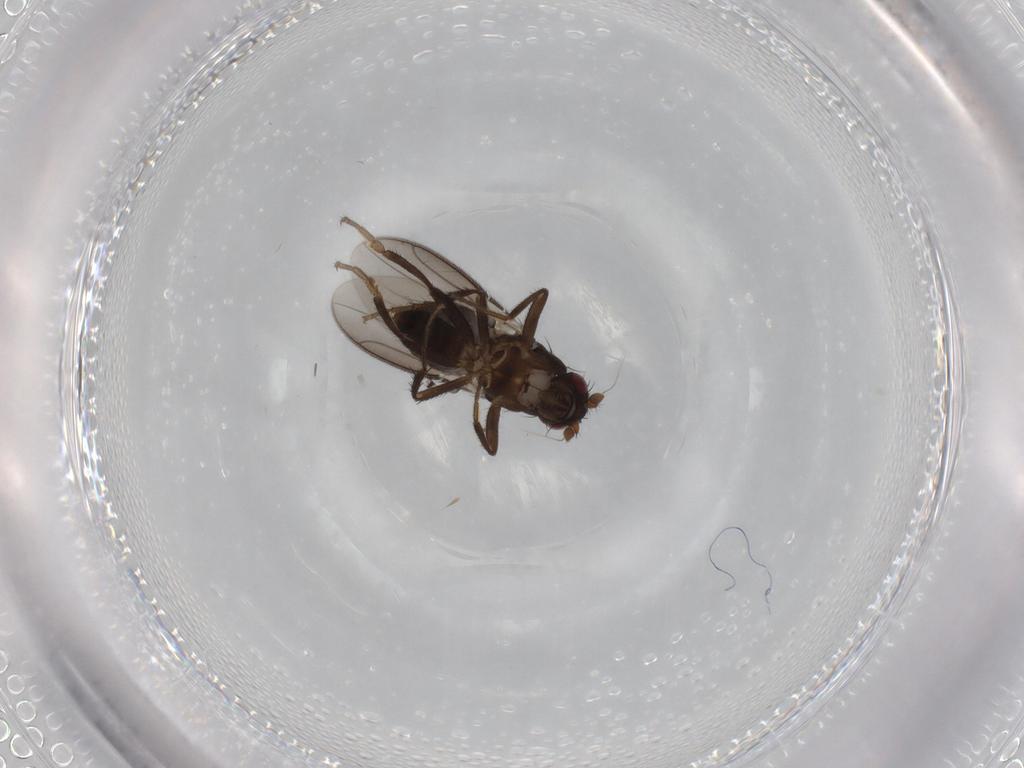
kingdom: Animalia
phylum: Arthropoda
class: Insecta
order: Diptera
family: Sphaeroceridae
